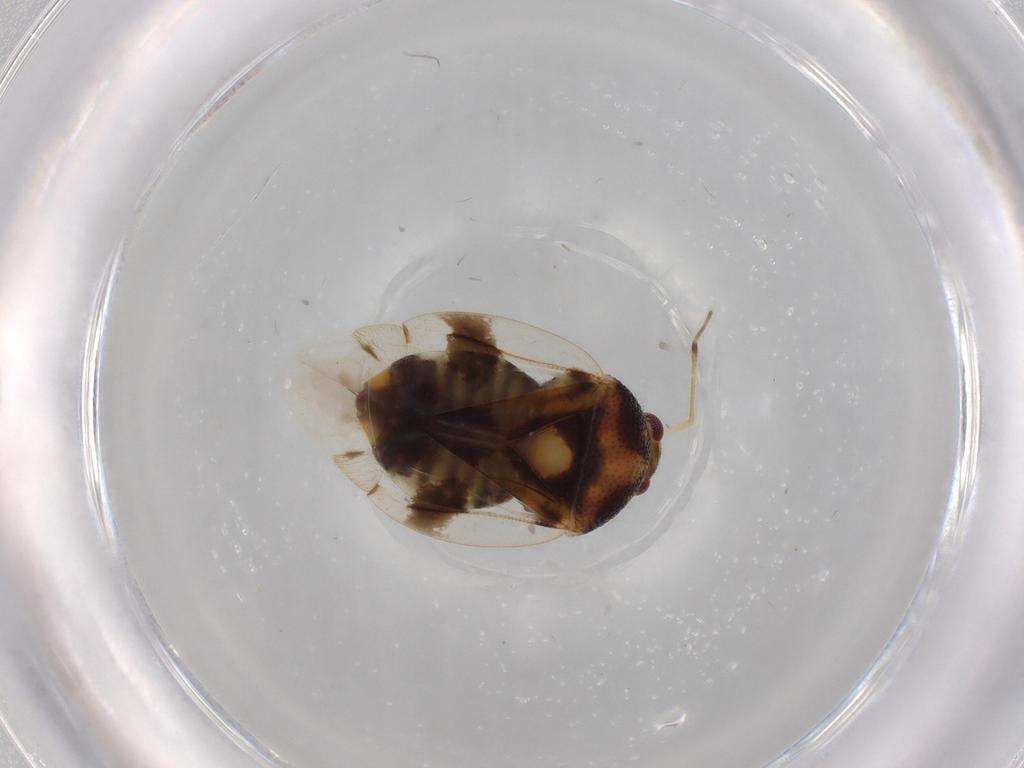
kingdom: Animalia
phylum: Arthropoda
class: Insecta
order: Hemiptera
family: Miridae
